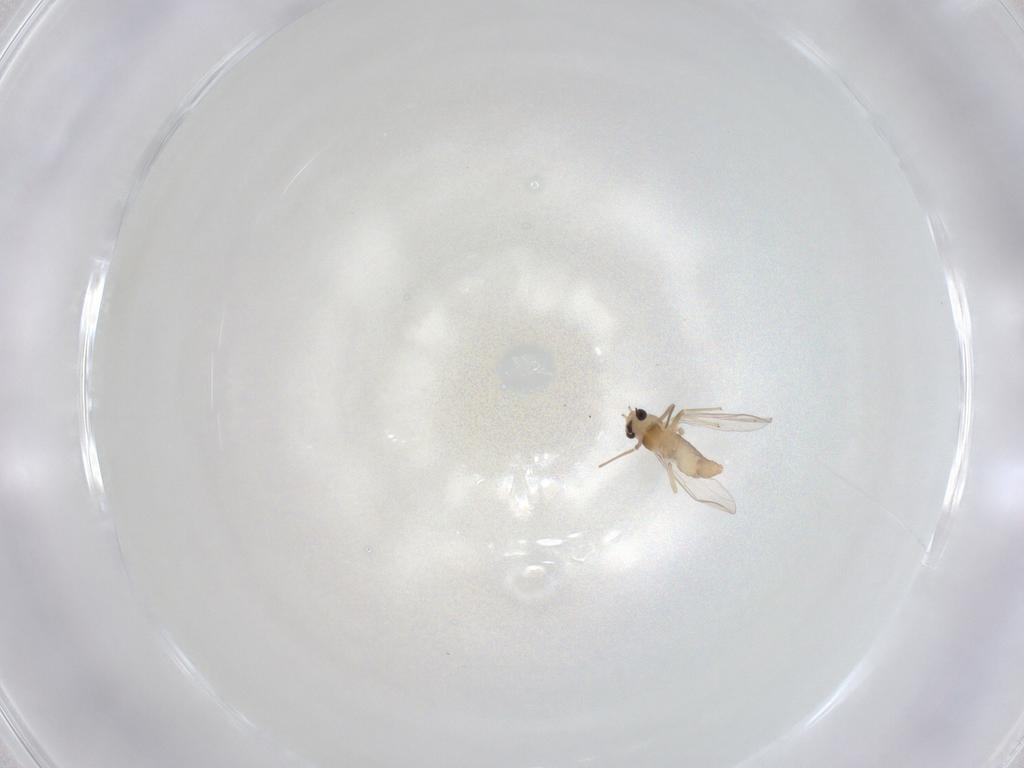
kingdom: Animalia
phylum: Arthropoda
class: Insecta
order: Diptera
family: Chironomidae
